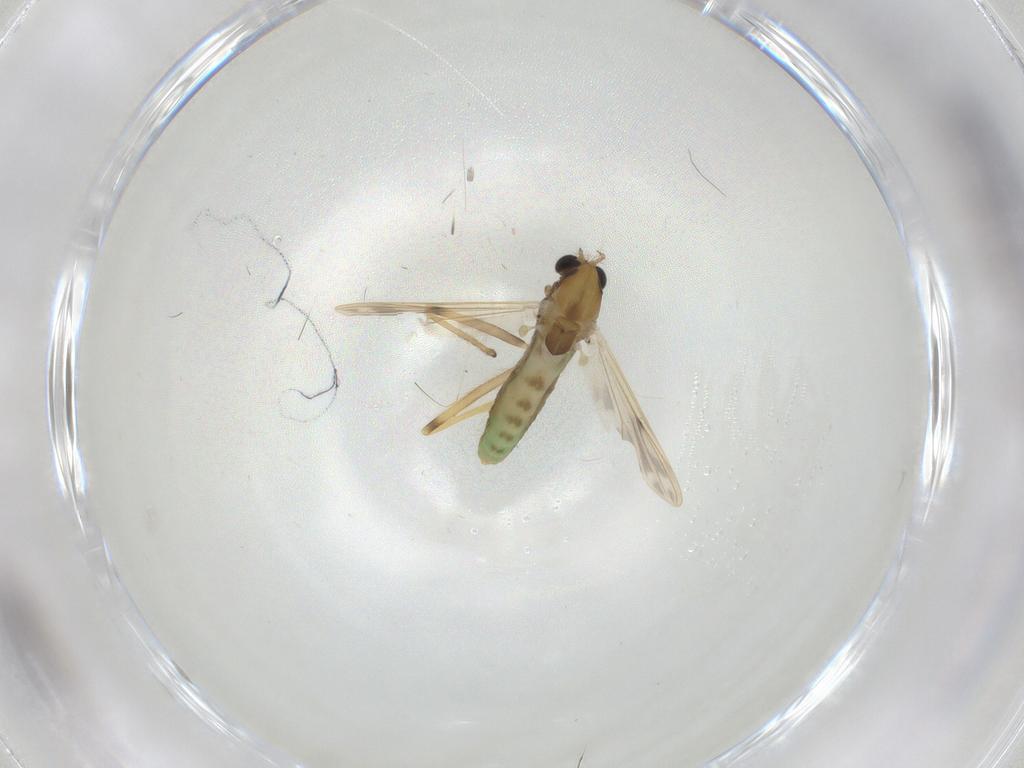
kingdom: Animalia
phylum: Arthropoda
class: Insecta
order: Diptera
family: Chironomidae
